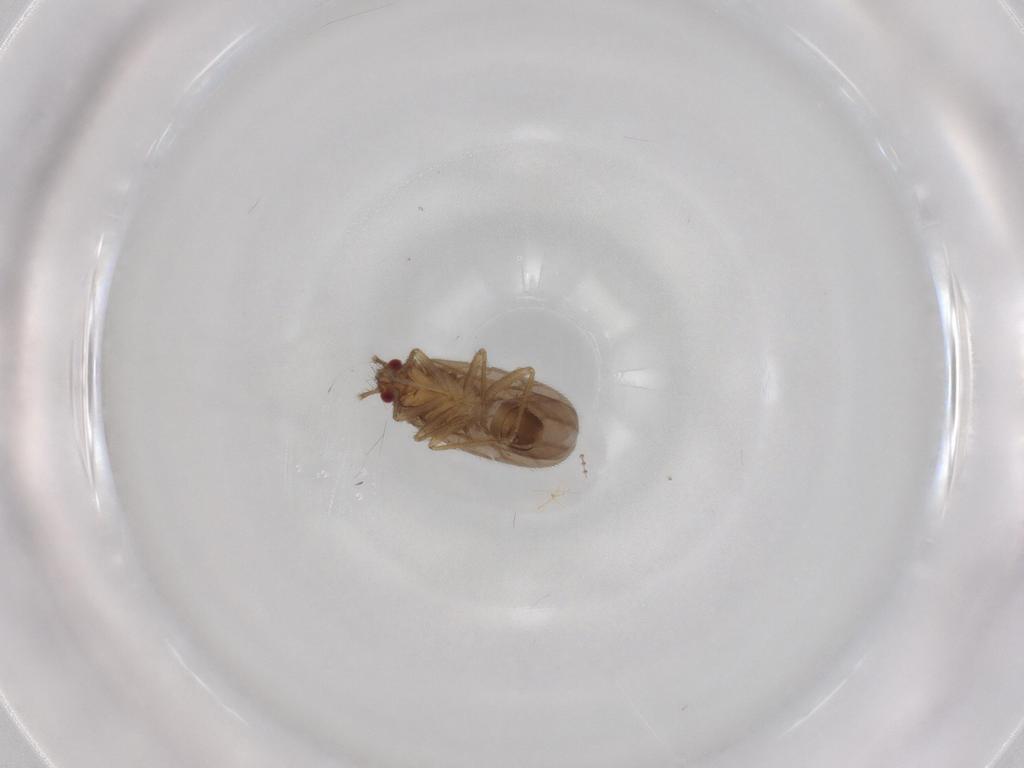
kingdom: Animalia
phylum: Arthropoda
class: Insecta
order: Hemiptera
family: Ceratocombidae
